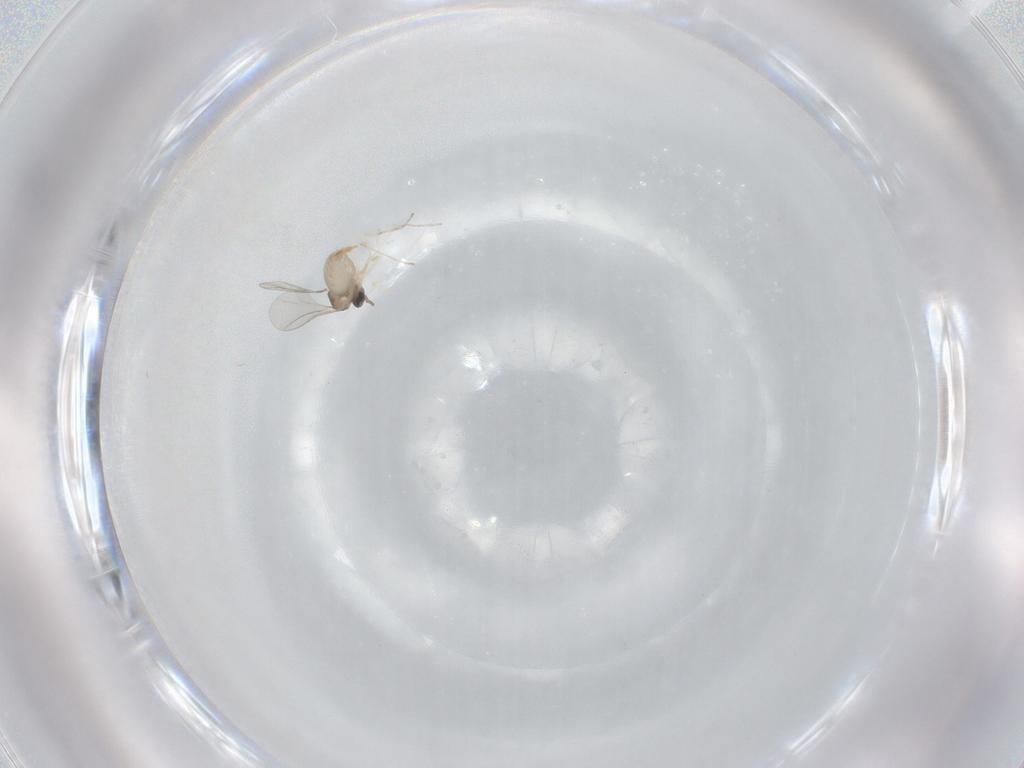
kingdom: Animalia
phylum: Arthropoda
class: Insecta
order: Diptera
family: Cecidomyiidae
